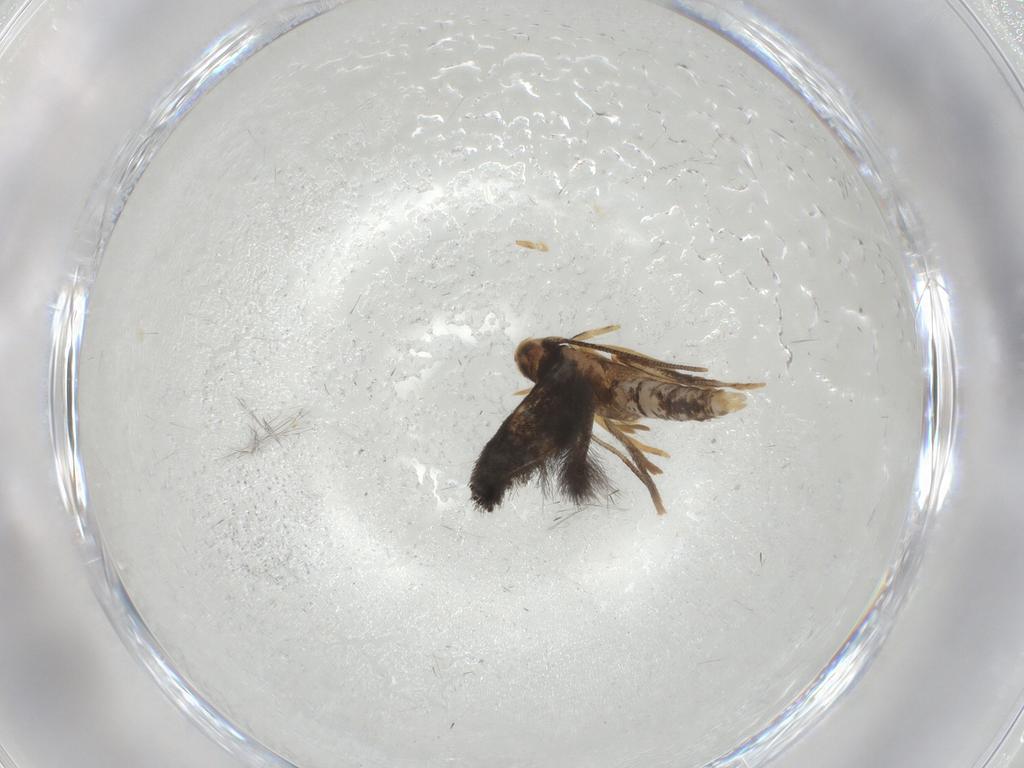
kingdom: Animalia
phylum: Arthropoda
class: Insecta
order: Lepidoptera
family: Gelechiidae
